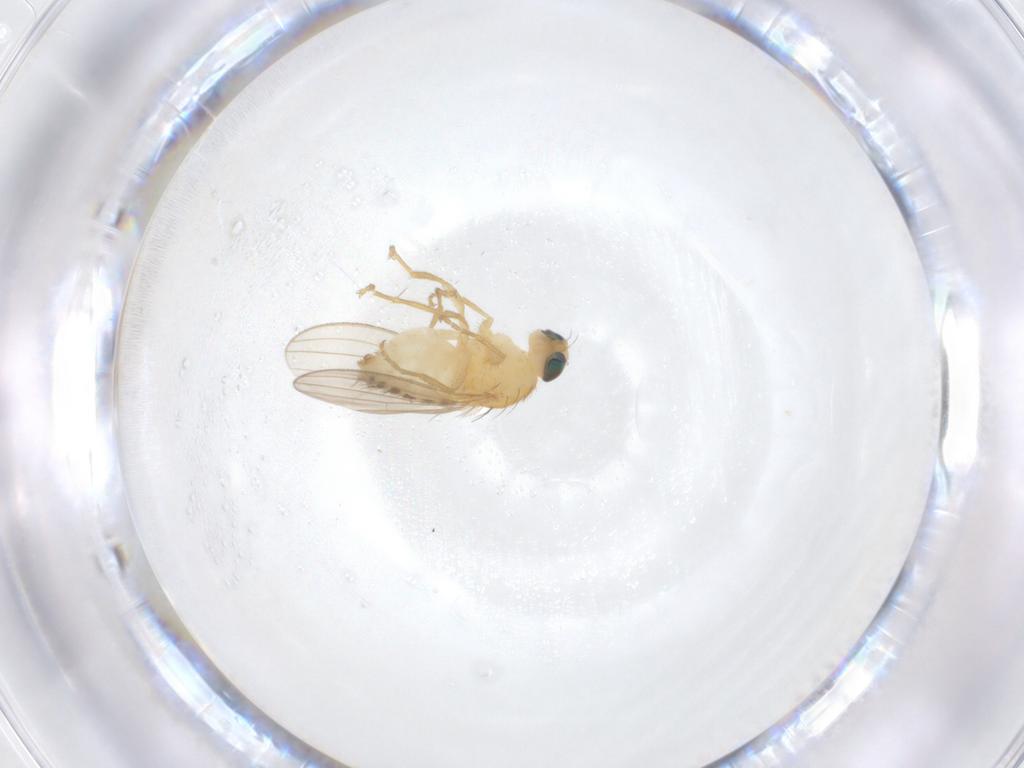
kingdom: Animalia
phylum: Arthropoda
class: Insecta
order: Diptera
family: Chyromyidae
